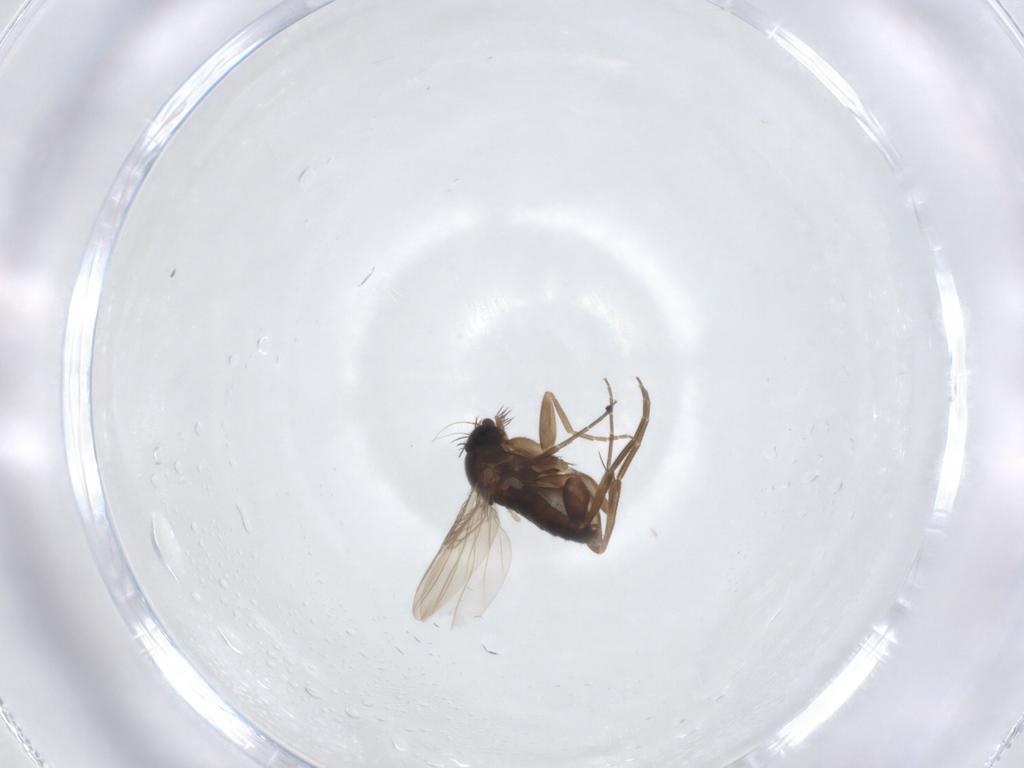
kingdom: Animalia
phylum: Arthropoda
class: Insecta
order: Diptera
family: Phoridae
